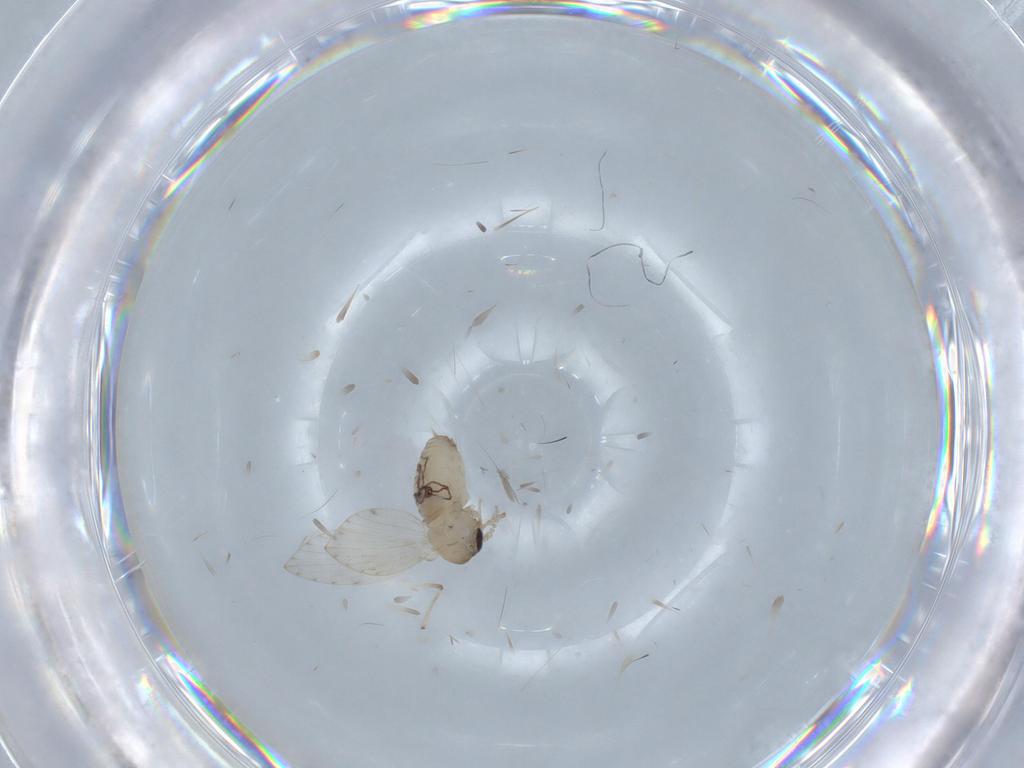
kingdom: Animalia
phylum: Arthropoda
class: Insecta
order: Diptera
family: Psychodidae
